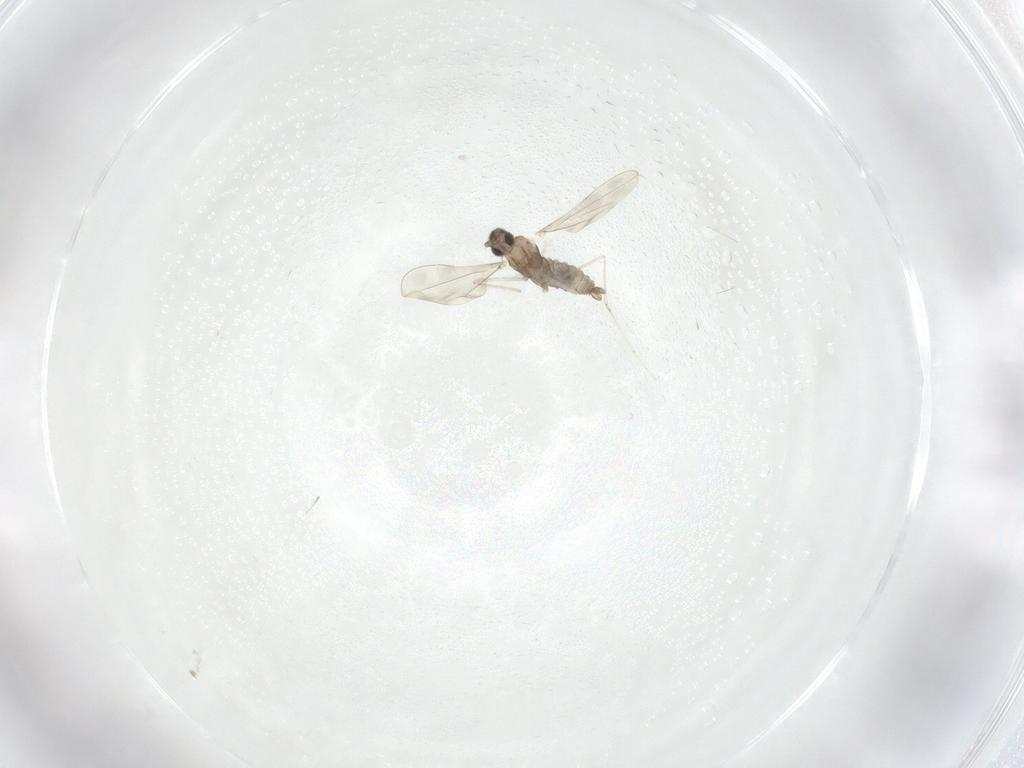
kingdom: Animalia
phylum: Arthropoda
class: Insecta
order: Diptera
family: Cecidomyiidae
